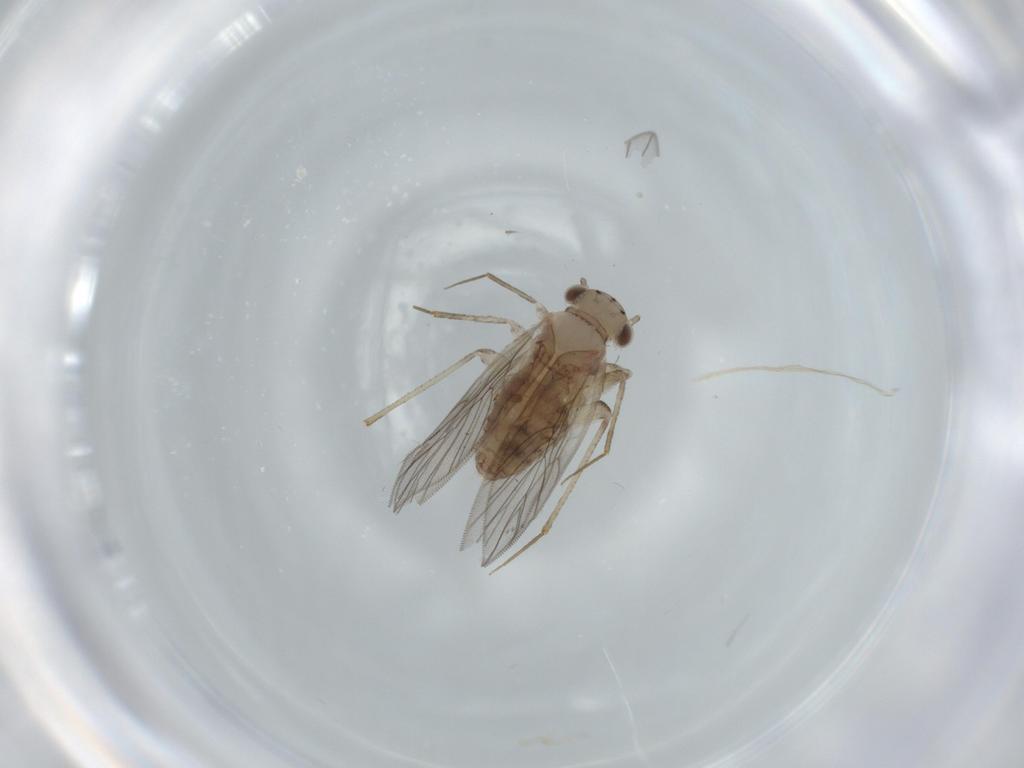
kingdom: Animalia
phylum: Arthropoda
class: Insecta
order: Psocodea
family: Lepidopsocidae
